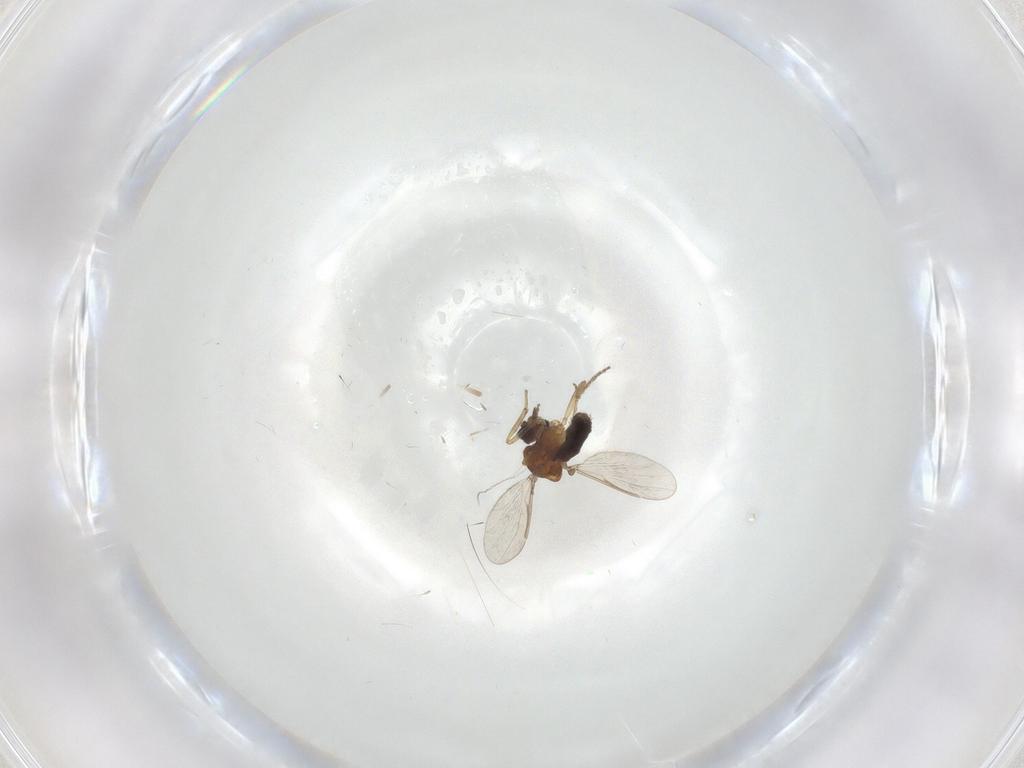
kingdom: Animalia
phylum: Arthropoda
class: Insecta
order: Diptera
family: Ceratopogonidae
